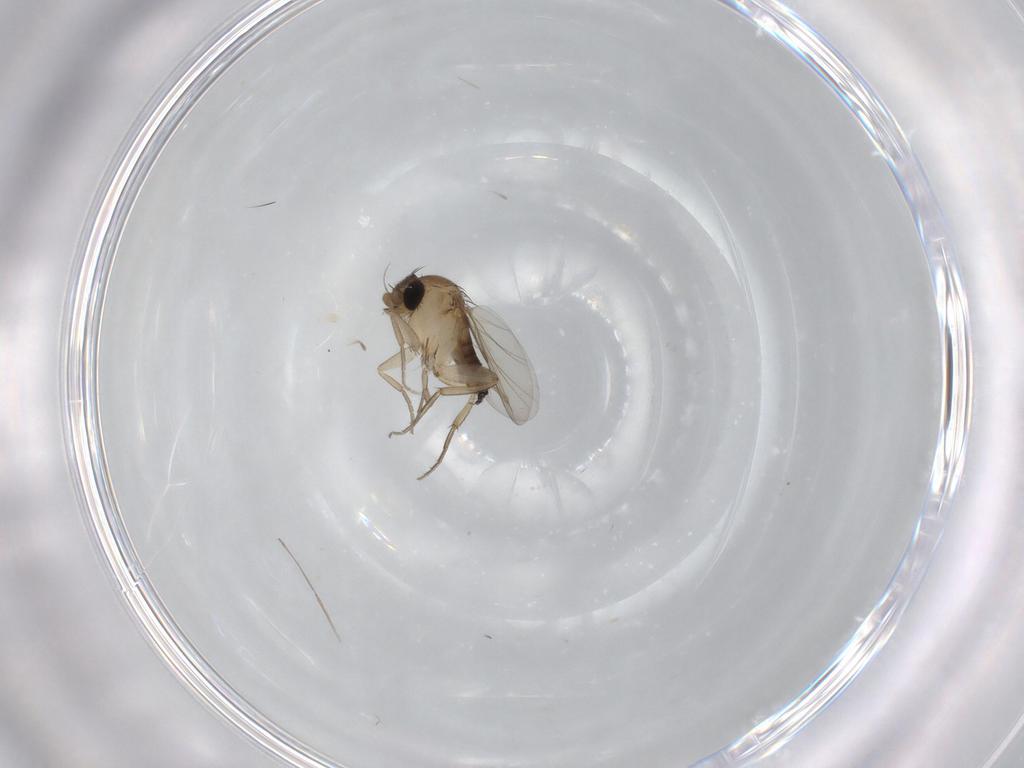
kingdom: Animalia
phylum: Arthropoda
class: Insecta
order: Diptera
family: Cecidomyiidae
